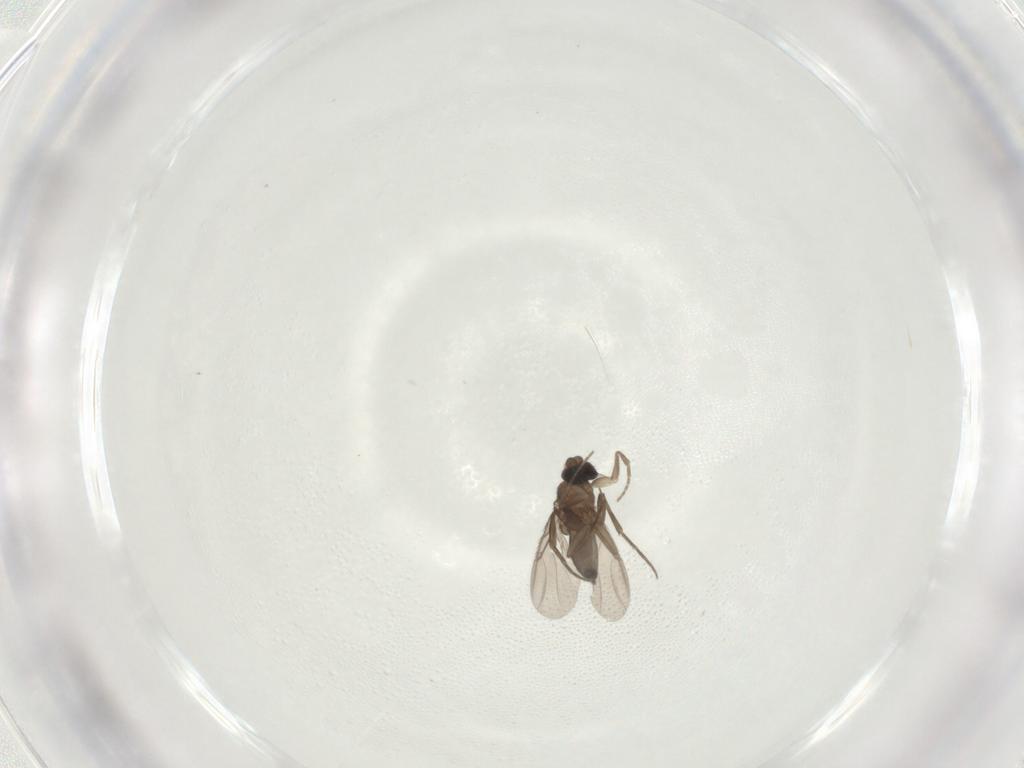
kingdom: Animalia
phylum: Arthropoda
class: Insecta
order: Diptera
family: Phoridae
